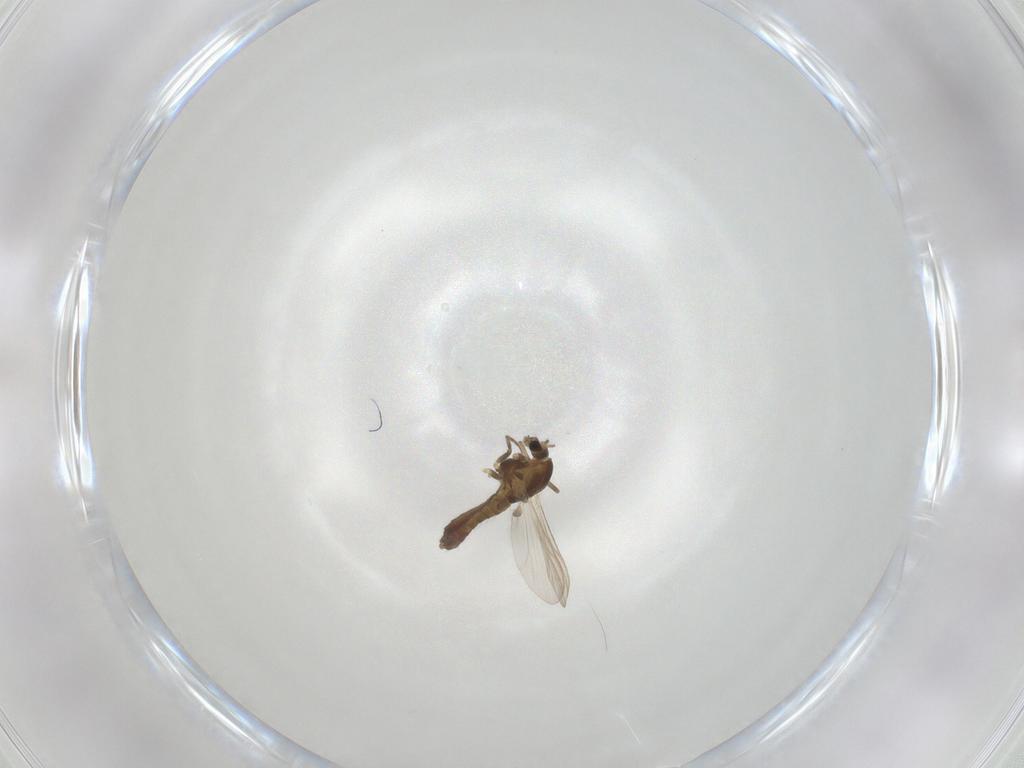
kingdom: Animalia
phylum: Arthropoda
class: Insecta
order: Diptera
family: Chironomidae
